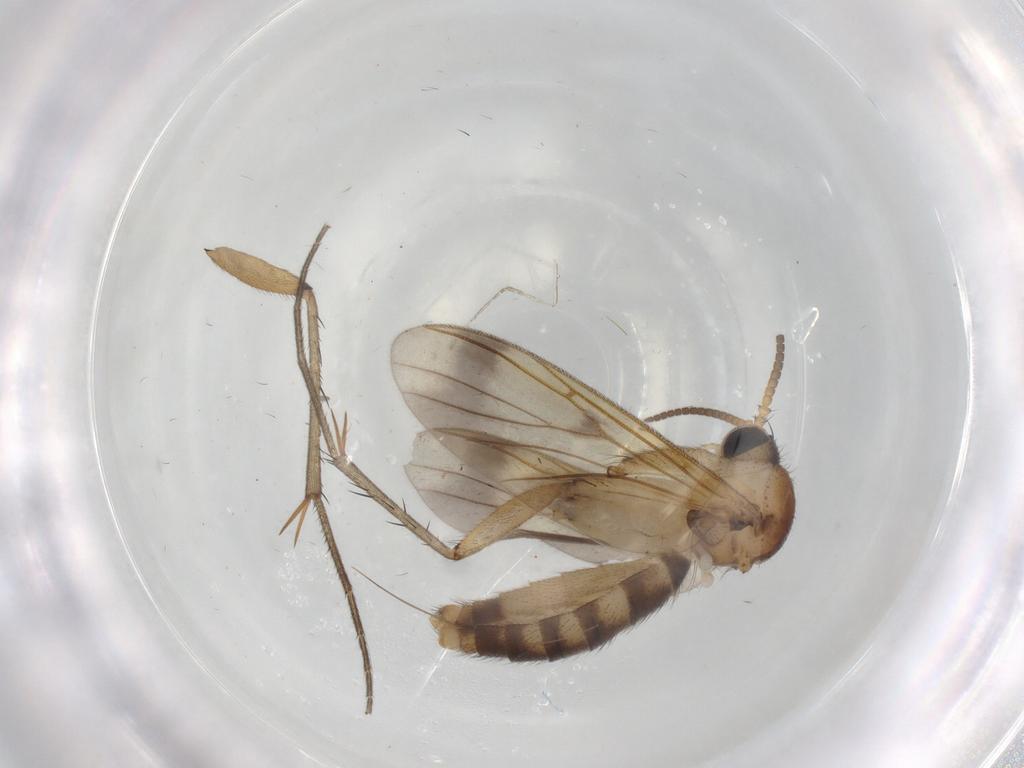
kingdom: Animalia
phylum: Arthropoda
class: Insecta
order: Diptera
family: Mycetophilidae
